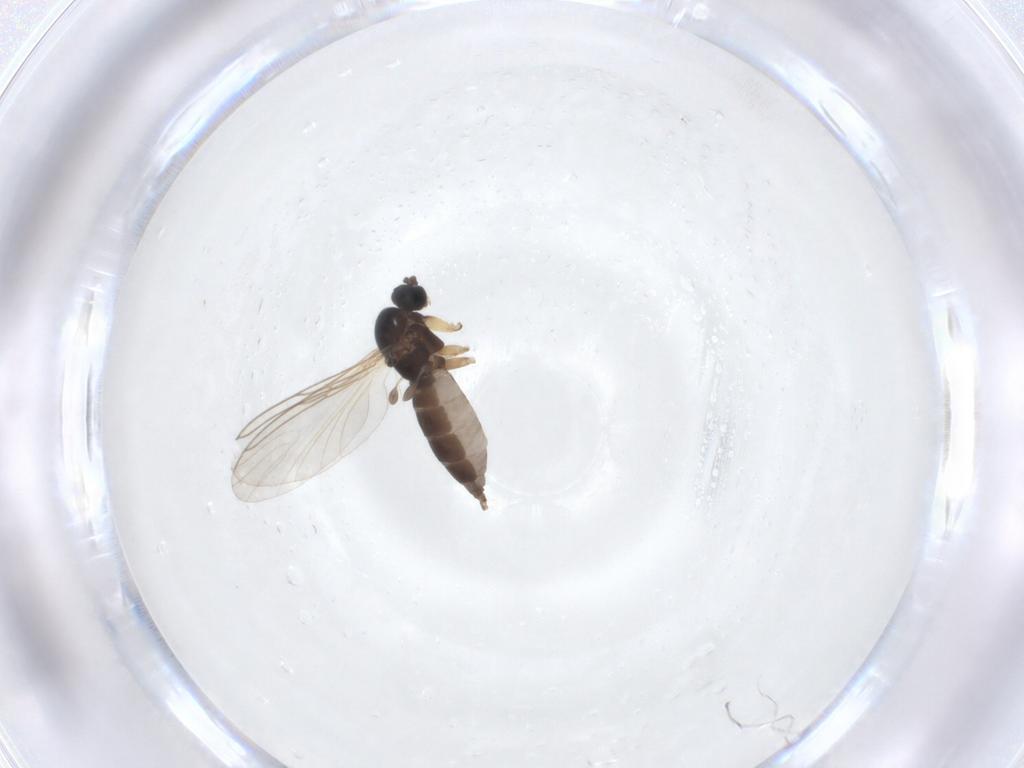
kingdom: Animalia
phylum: Arthropoda
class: Insecta
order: Diptera
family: Sciaridae
